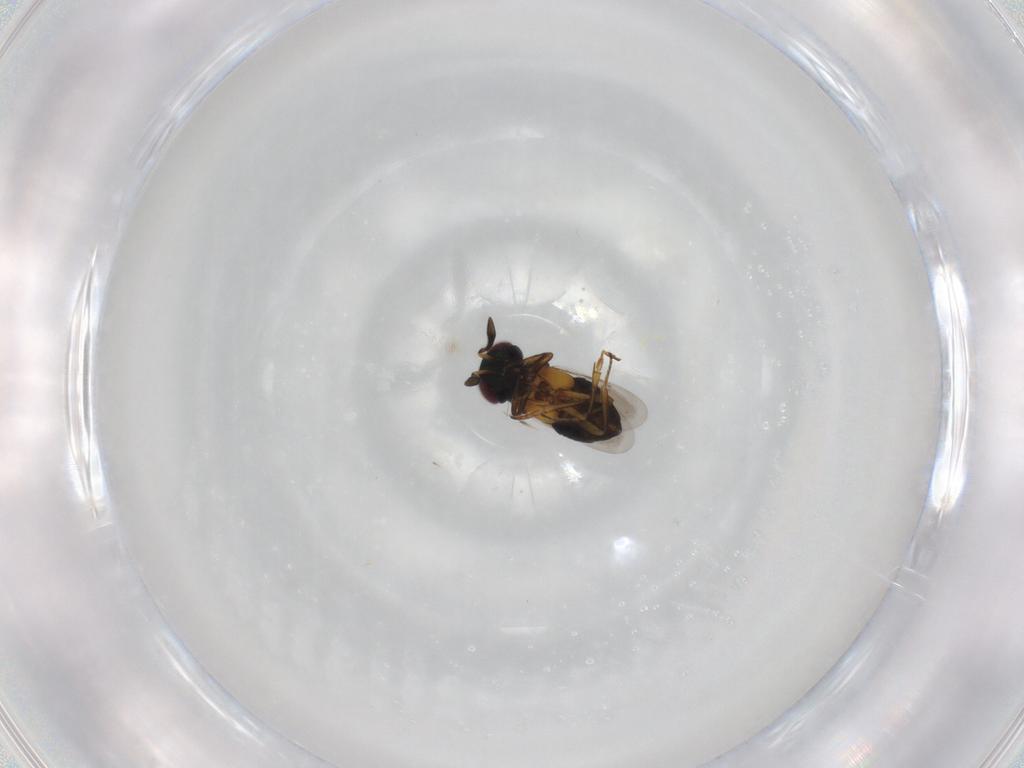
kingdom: Animalia
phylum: Arthropoda
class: Insecta
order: Hymenoptera
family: Encyrtidae
